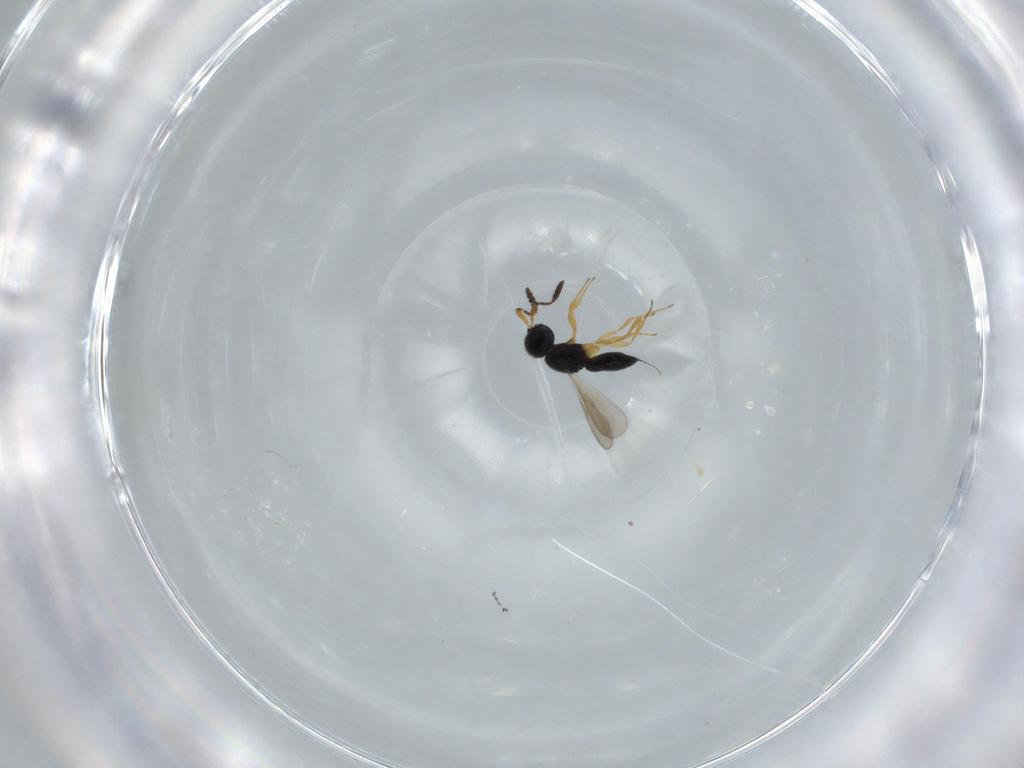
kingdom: Animalia
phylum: Arthropoda
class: Insecta
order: Hymenoptera
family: Scelionidae
